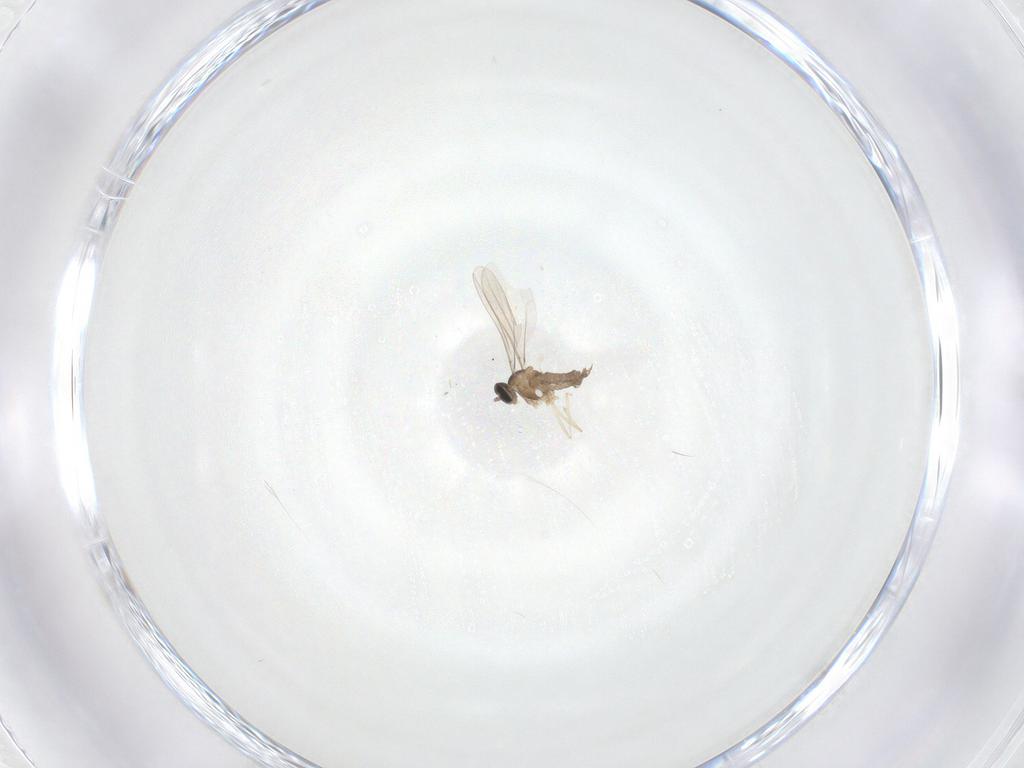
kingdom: Animalia
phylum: Arthropoda
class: Insecta
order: Diptera
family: Cecidomyiidae
